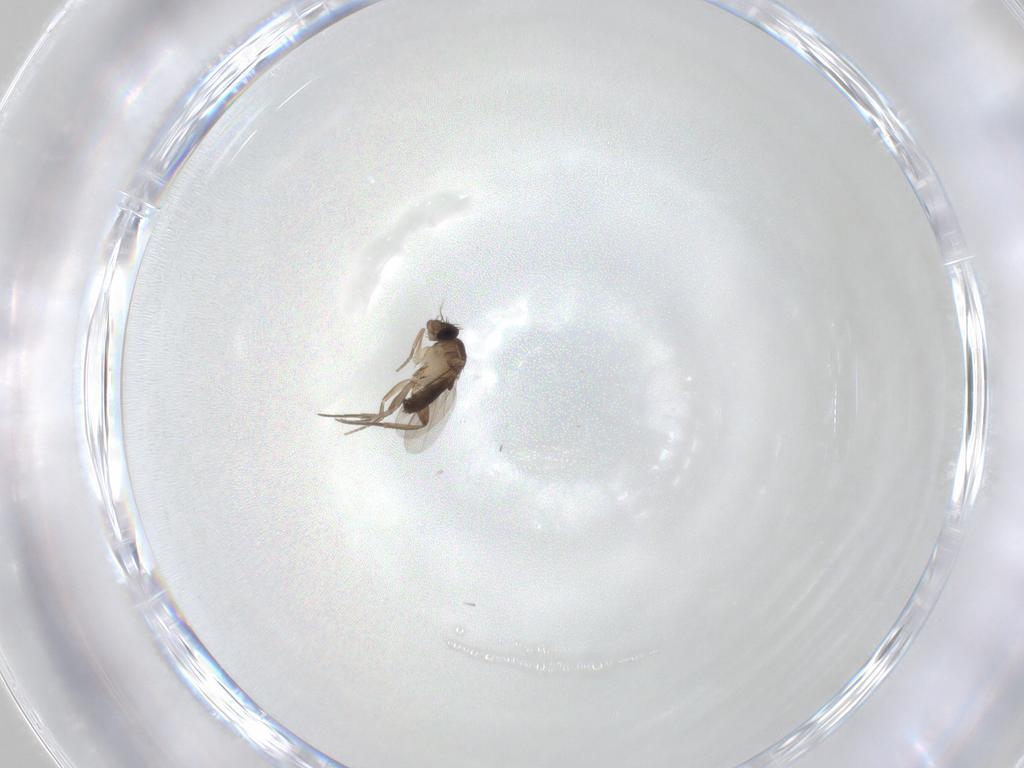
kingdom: Animalia
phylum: Arthropoda
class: Insecta
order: Diptera
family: Phoridae
